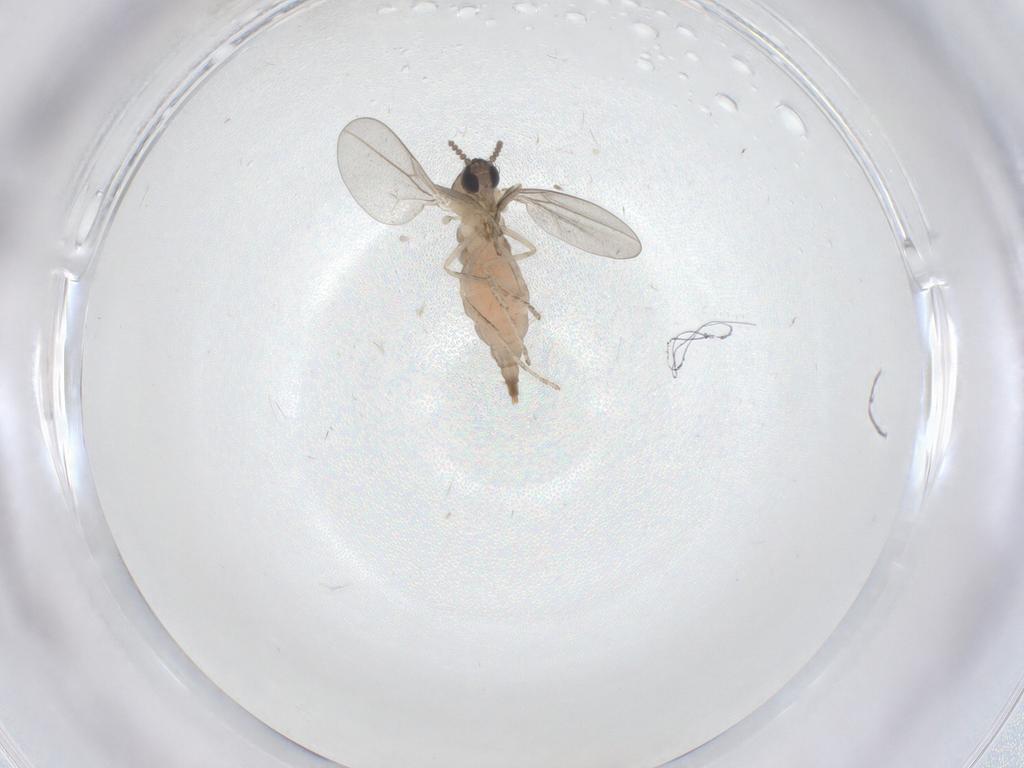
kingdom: Animalia
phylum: Arthropoda
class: Insecta
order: Diptera
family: Cecidomyiidae
